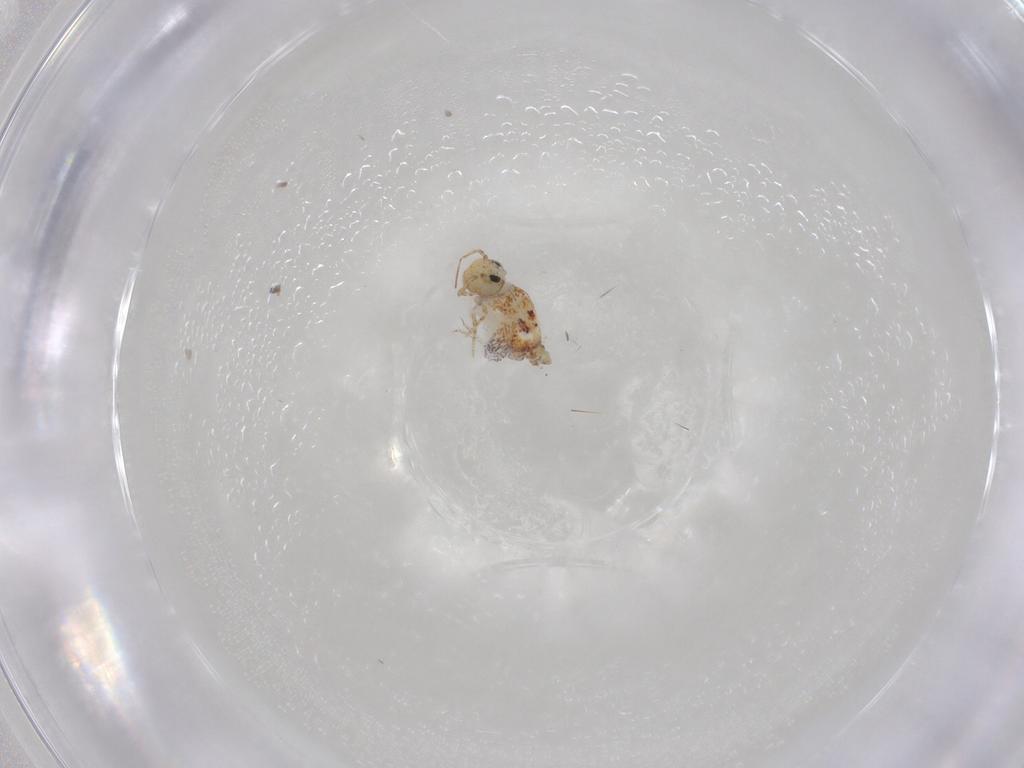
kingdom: Animalia
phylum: Arthropoda
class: Collembola
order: Symphypleona
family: Bourletiellidae
